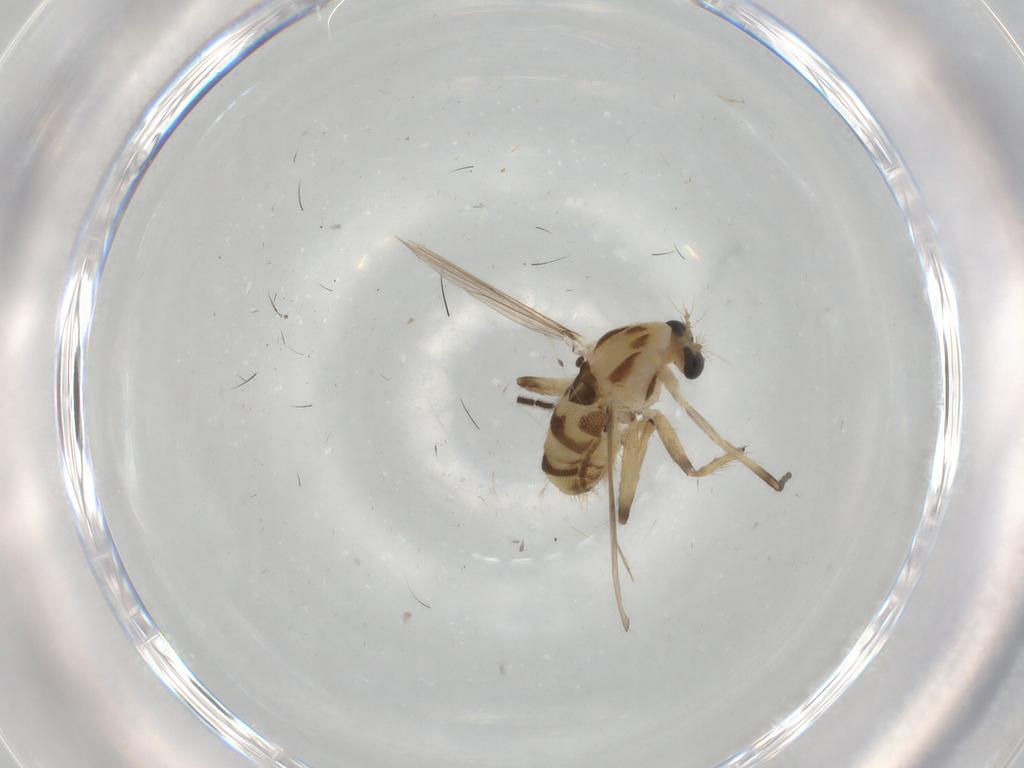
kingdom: Animalia
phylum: Arthropoda
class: Insecta
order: Diptera
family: Chironomidae
